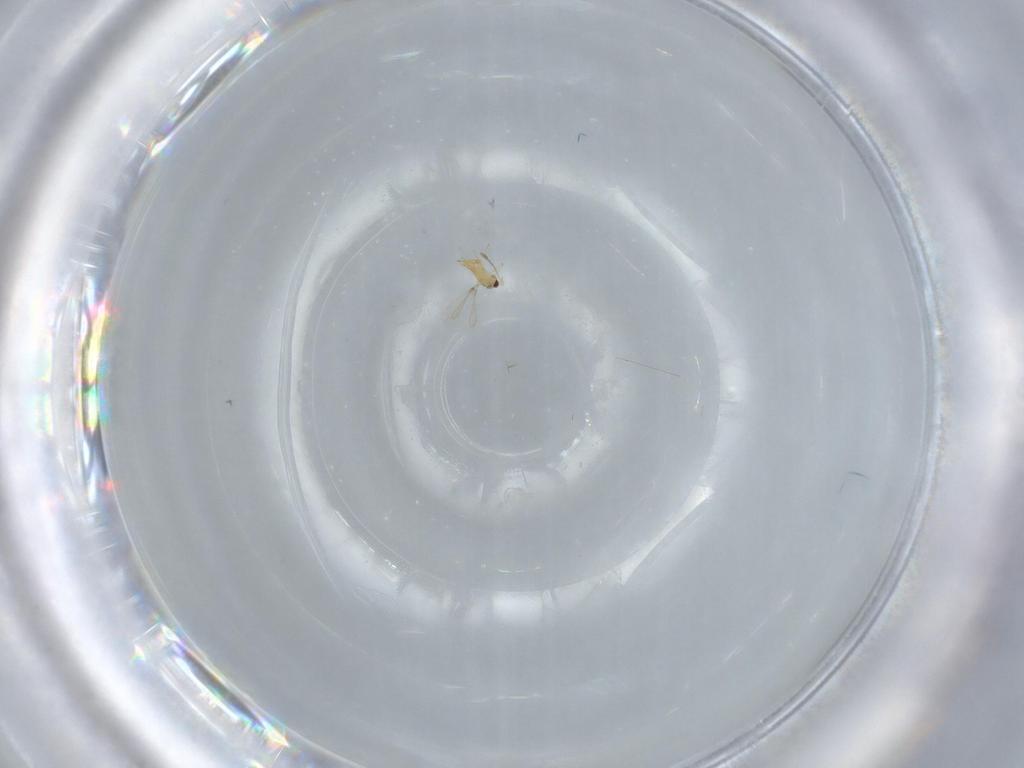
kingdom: Animalia
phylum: Arthropoda
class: Insecta
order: Hymenoptera
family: Mymaridae
